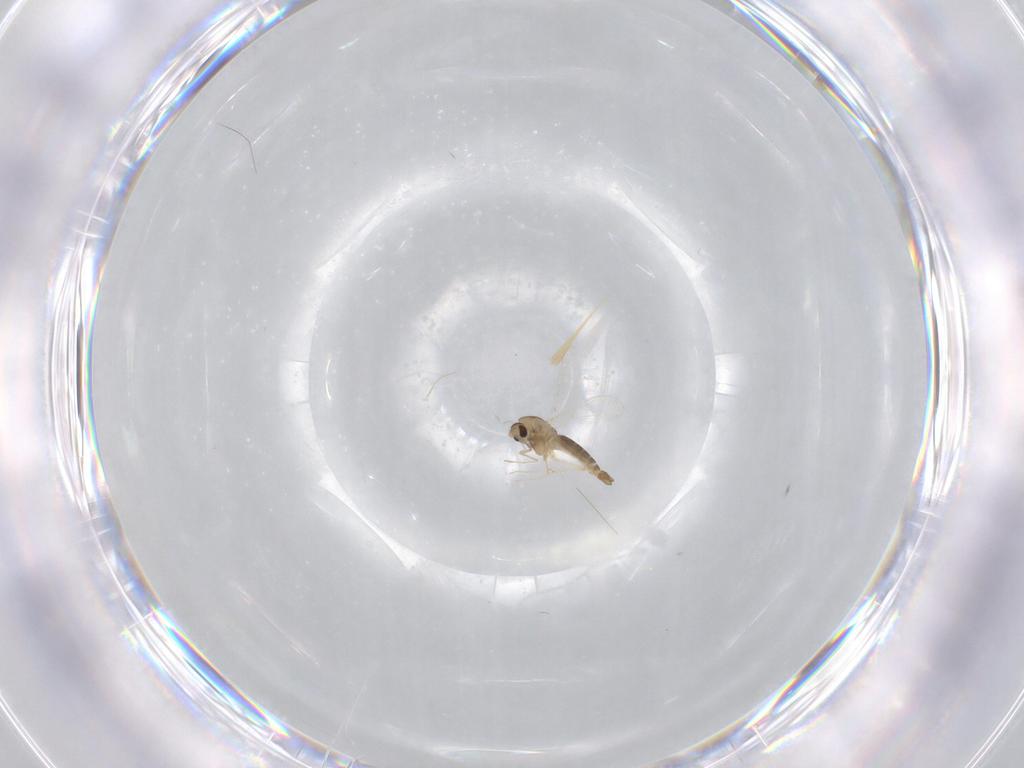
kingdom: Animalia
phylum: Arthropoda
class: Insecta
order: Diptera
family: Chironomidae
